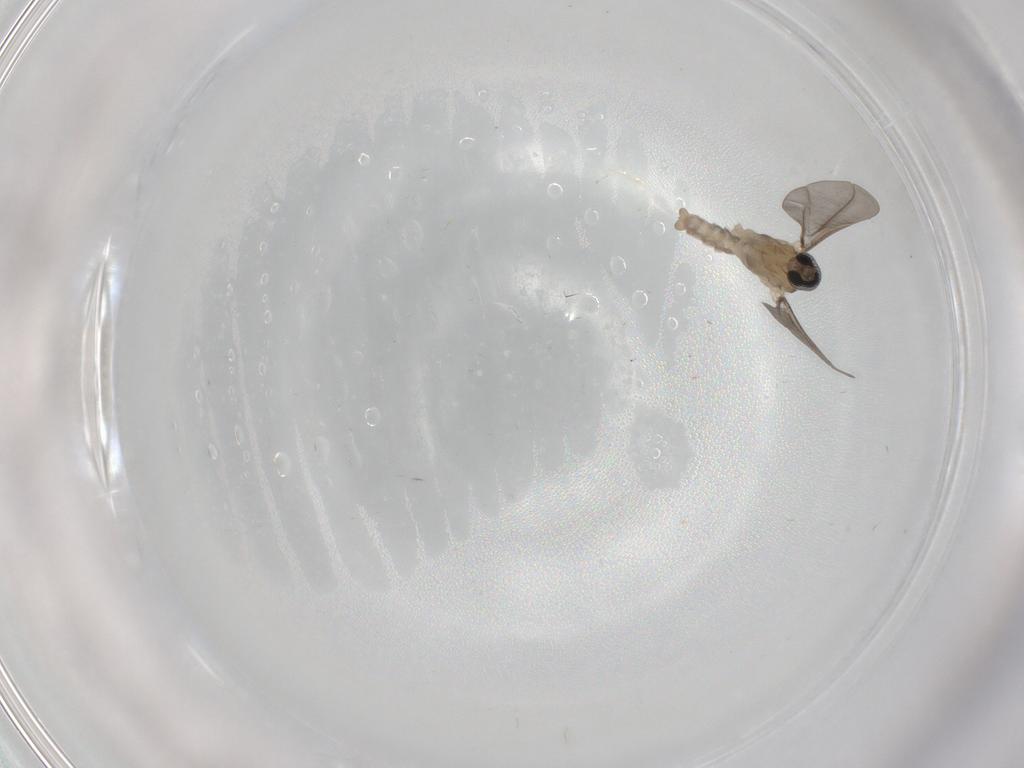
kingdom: Animalia
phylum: Arthropoda
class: Insecta
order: Diptera
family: Cecidomyiidae
